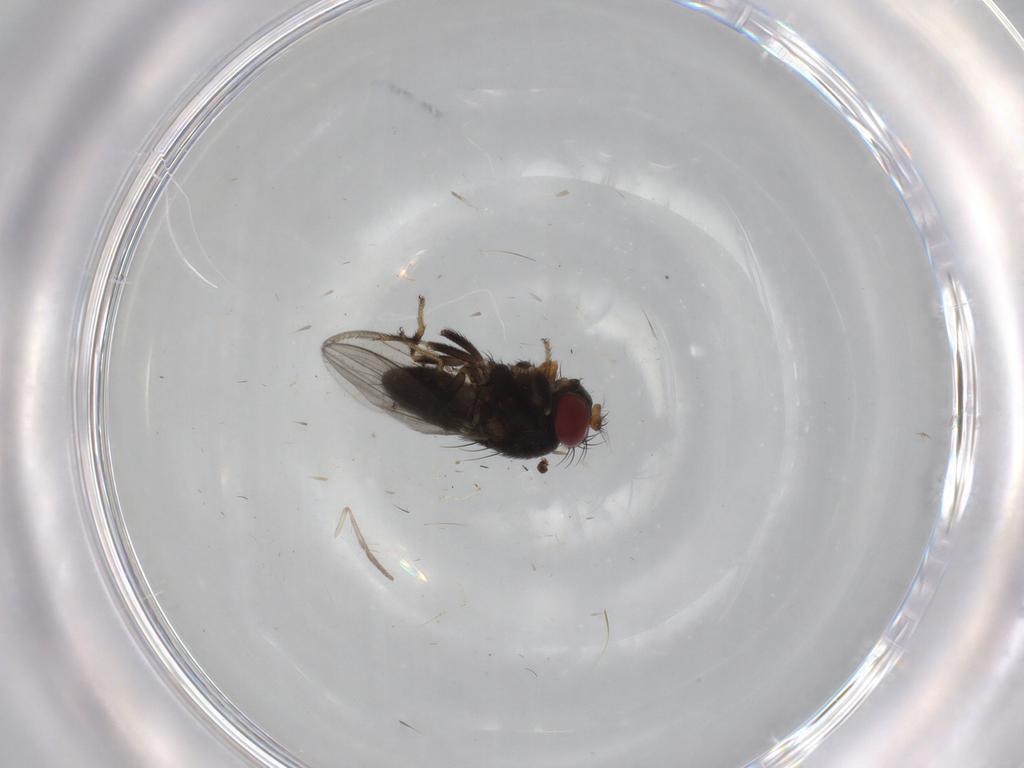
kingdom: Animalia
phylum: Arthropoda
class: Insecta
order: Diptera
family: Ephydridae
